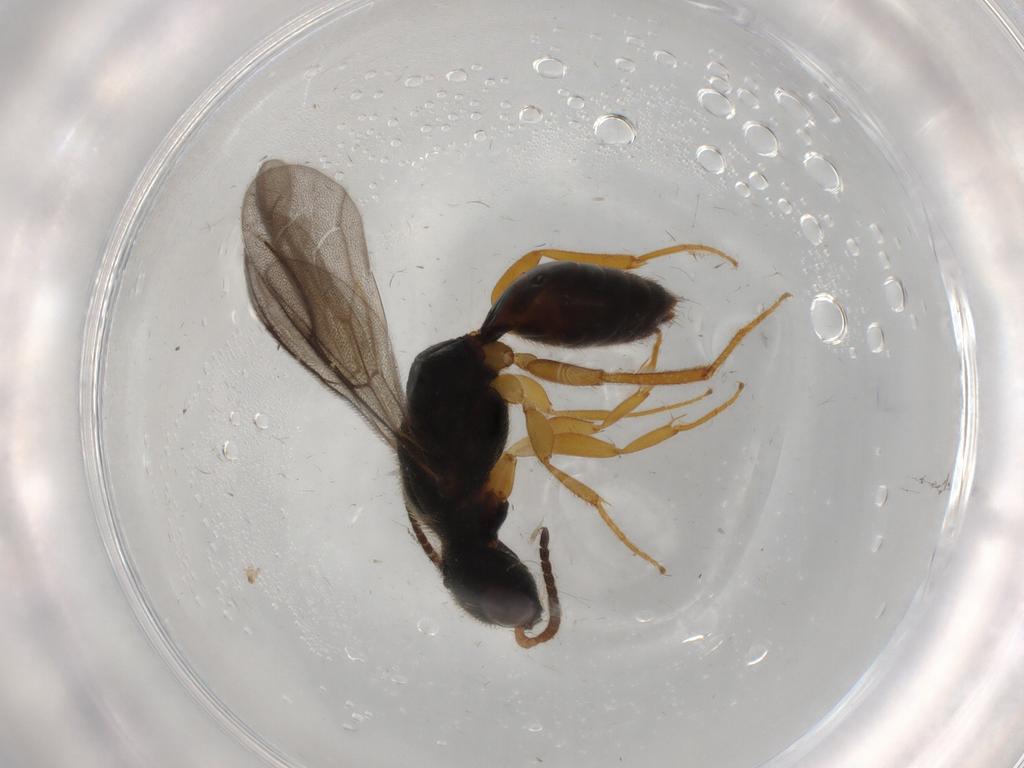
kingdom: Animalia
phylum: Arthropoda
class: Insecta
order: Hymenoptera
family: Bethylidae
